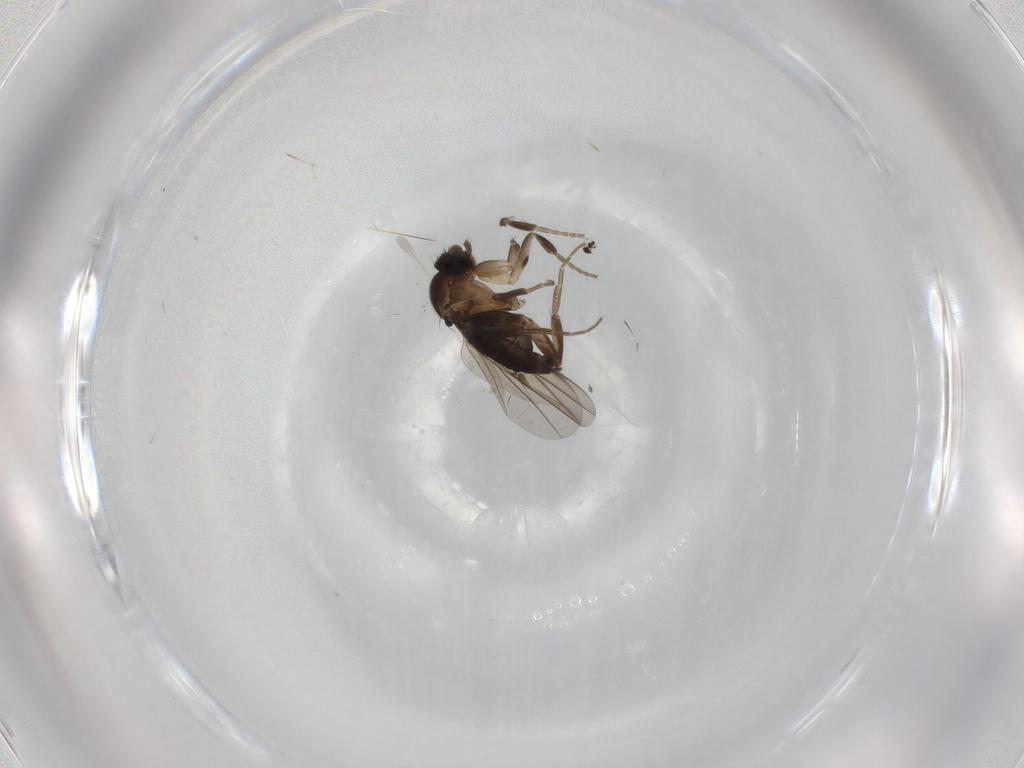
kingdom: Animalia
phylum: Arthropoda
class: Insecta
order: Diptera
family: Phoridae
